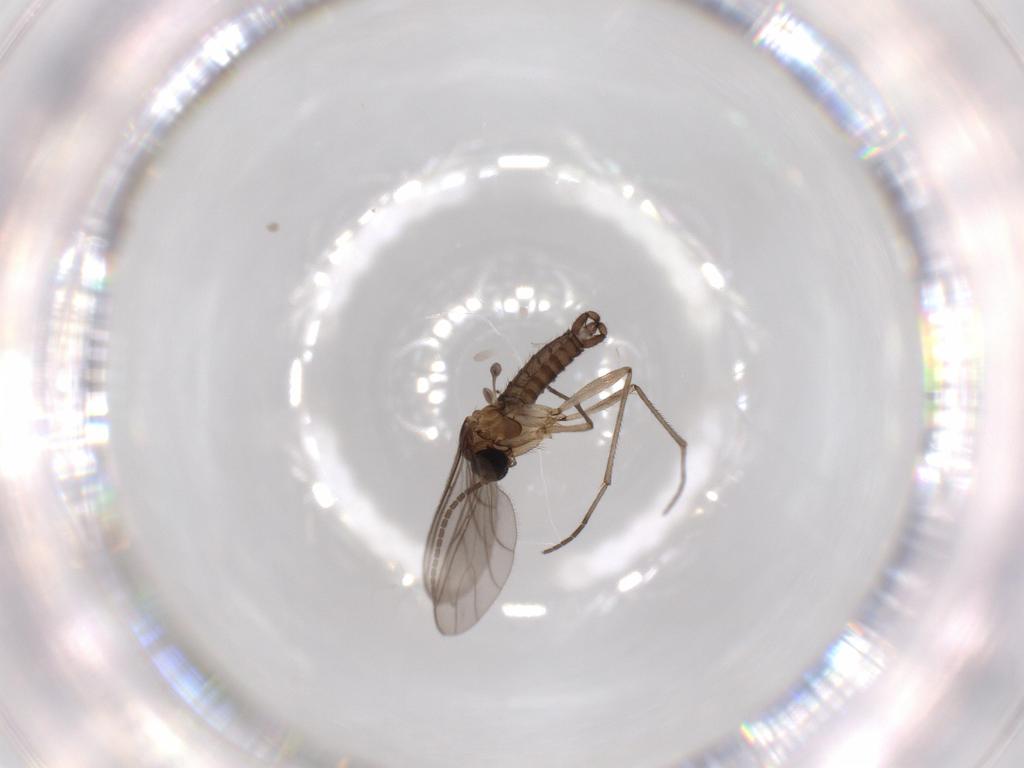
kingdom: Animalia
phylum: Arthropoda
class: Insecta
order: Diptera
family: Sciaridae
